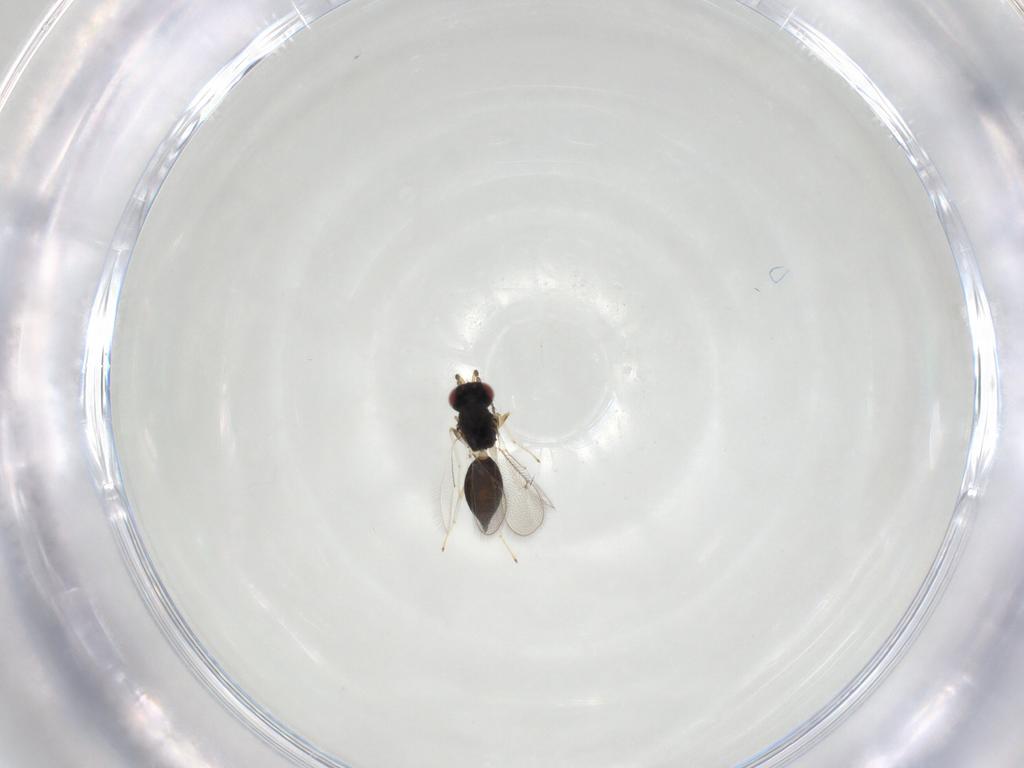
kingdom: Animalia
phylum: Arthropoda
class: Insecta
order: Hymenoptera
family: Eulophidae
